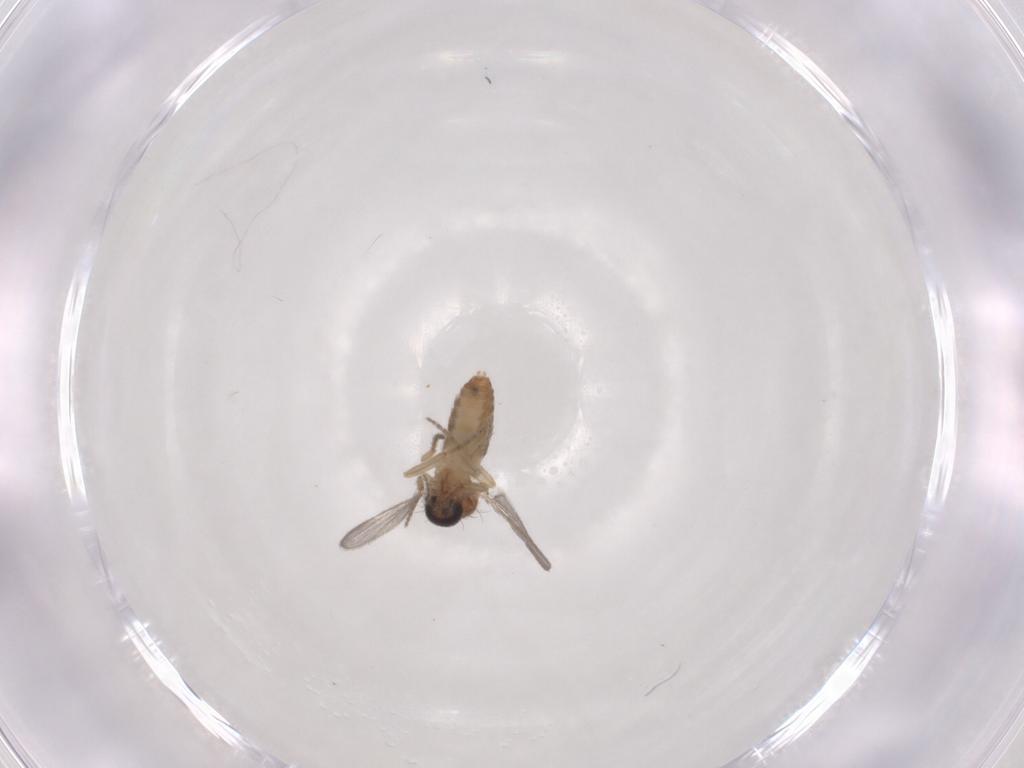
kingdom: Animalia
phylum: Arthropoda
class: Insecta
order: Diptera
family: Ceratopogonidae
